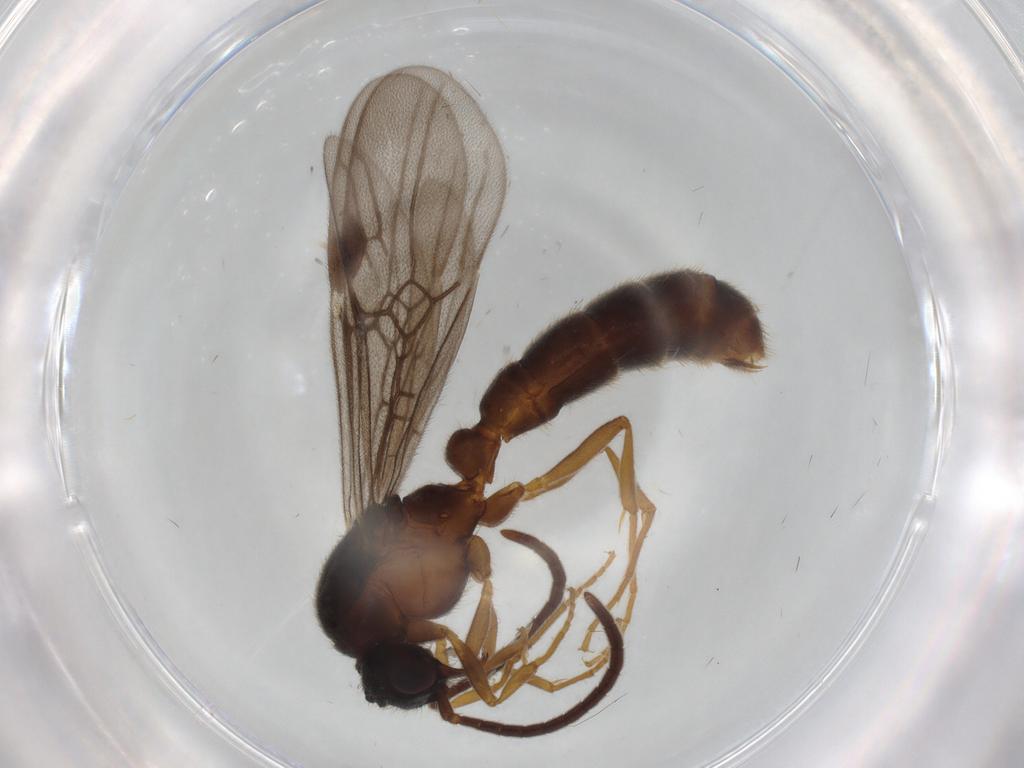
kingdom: Animalia
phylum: Arthropoda
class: Insecta
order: Hymenoptera
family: Formicidae
